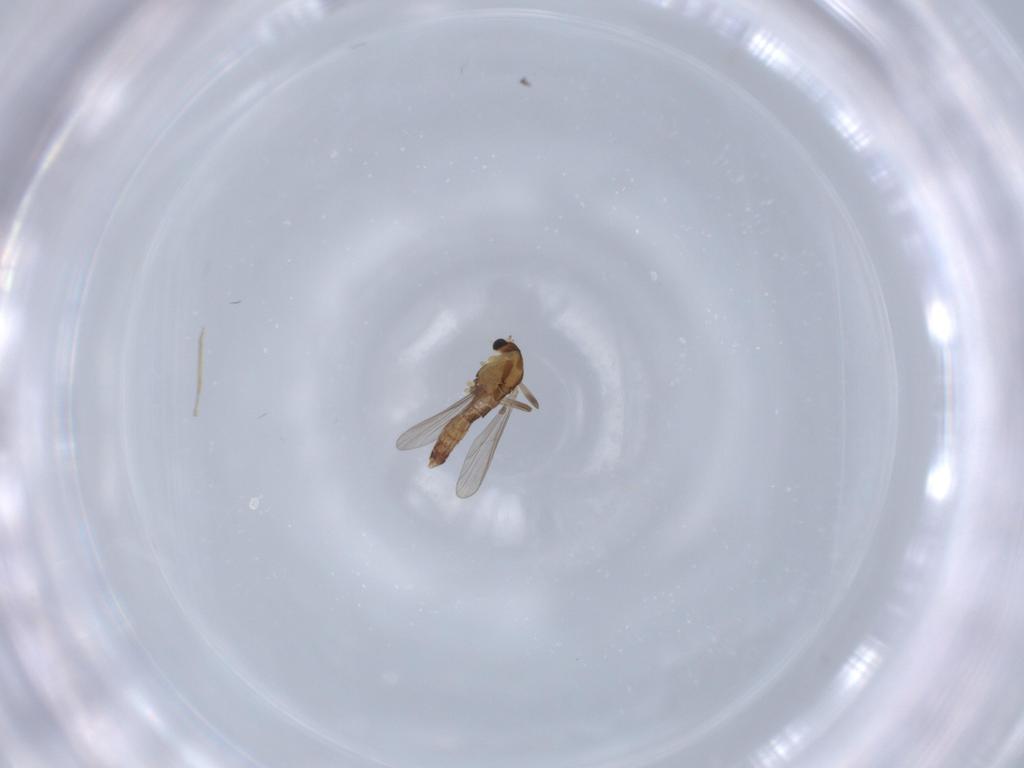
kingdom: Animalia
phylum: Arthropoda
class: Insecta
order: Diptera
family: Chironomidae
